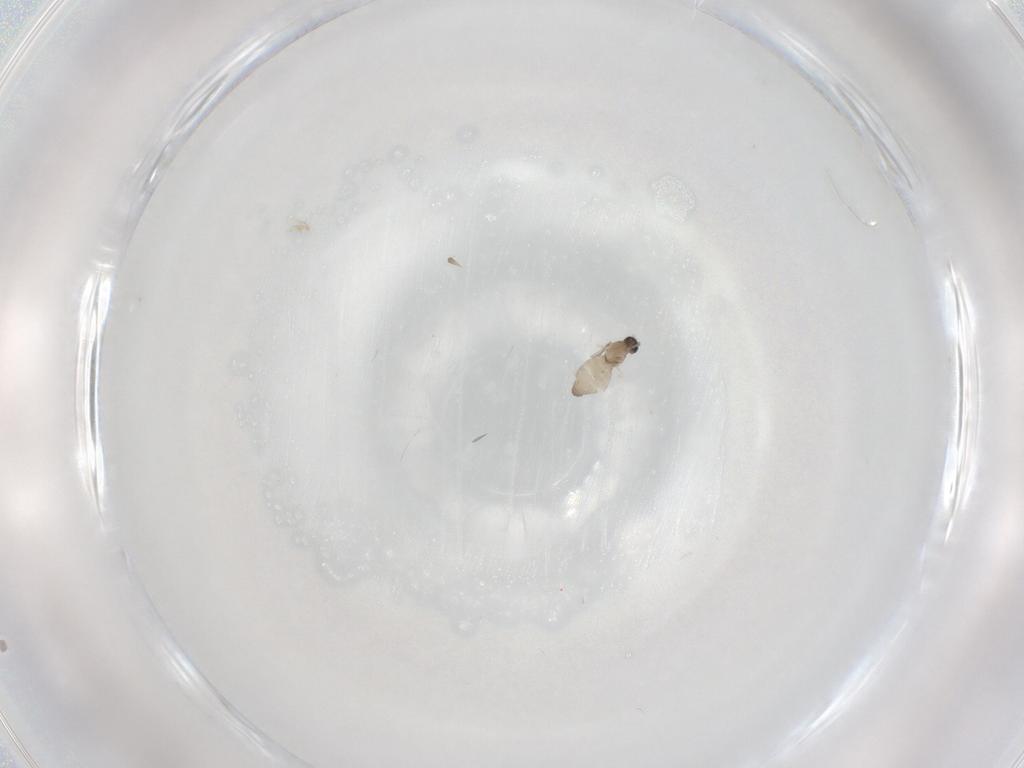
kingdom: Animalia
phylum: Arthropoda
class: Insecta
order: Diptera
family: Cecidomyiidae
